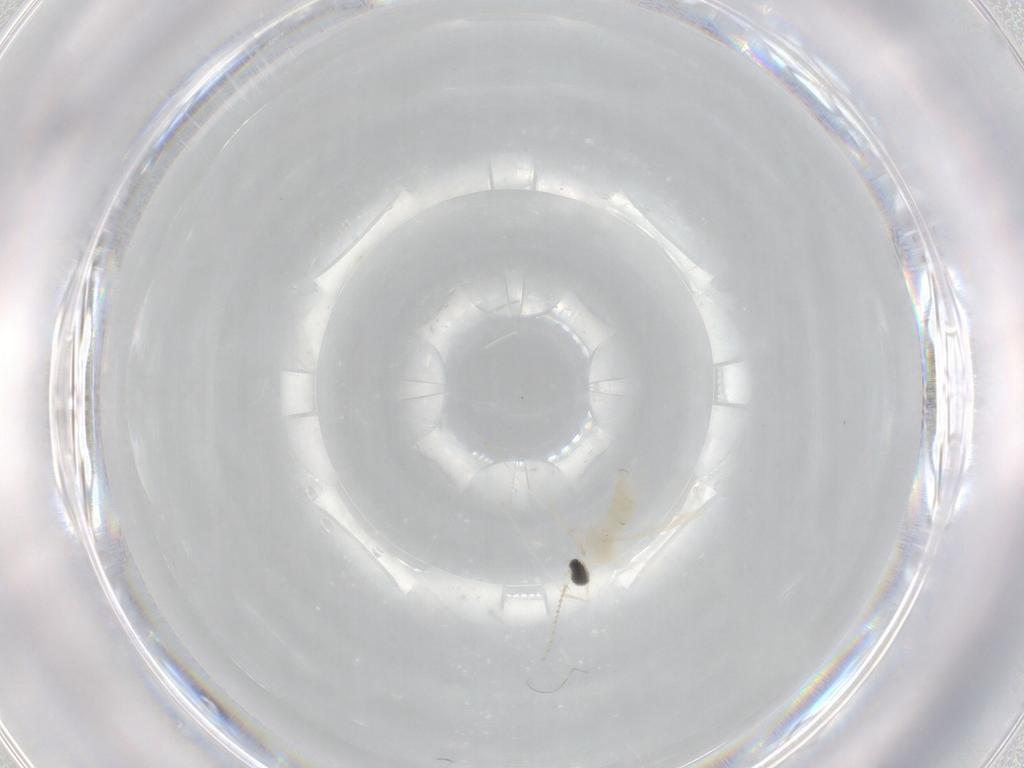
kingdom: Animalia
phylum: Arthropoda
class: Insecta
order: Diptera
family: Cecidomyiidae
